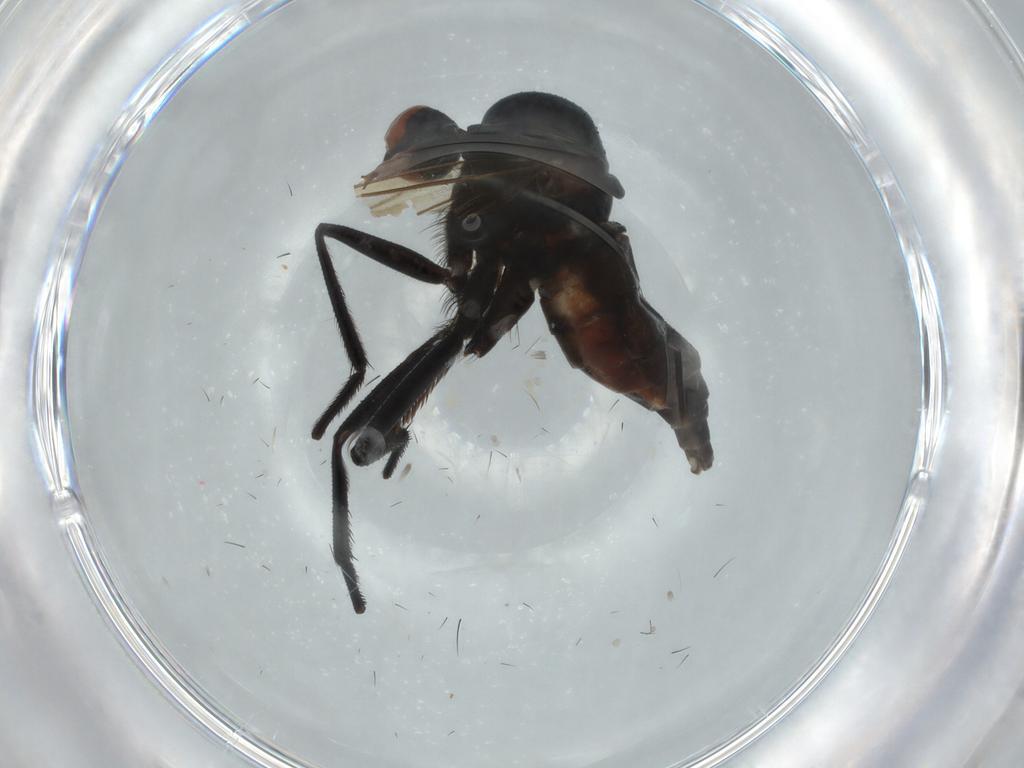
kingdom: Animalia
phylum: Arthropoda
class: Insecta
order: Diptera
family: Empididae
